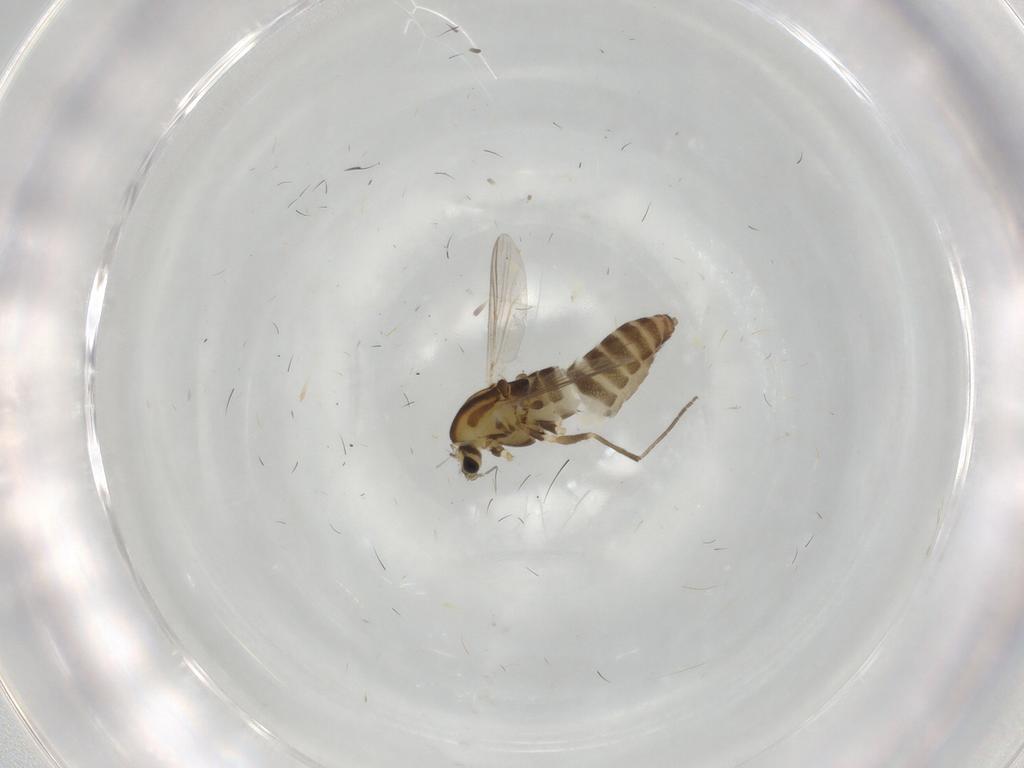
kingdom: Animalia
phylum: Arthropoda
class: Insecta
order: Diptera
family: Chironomidae
